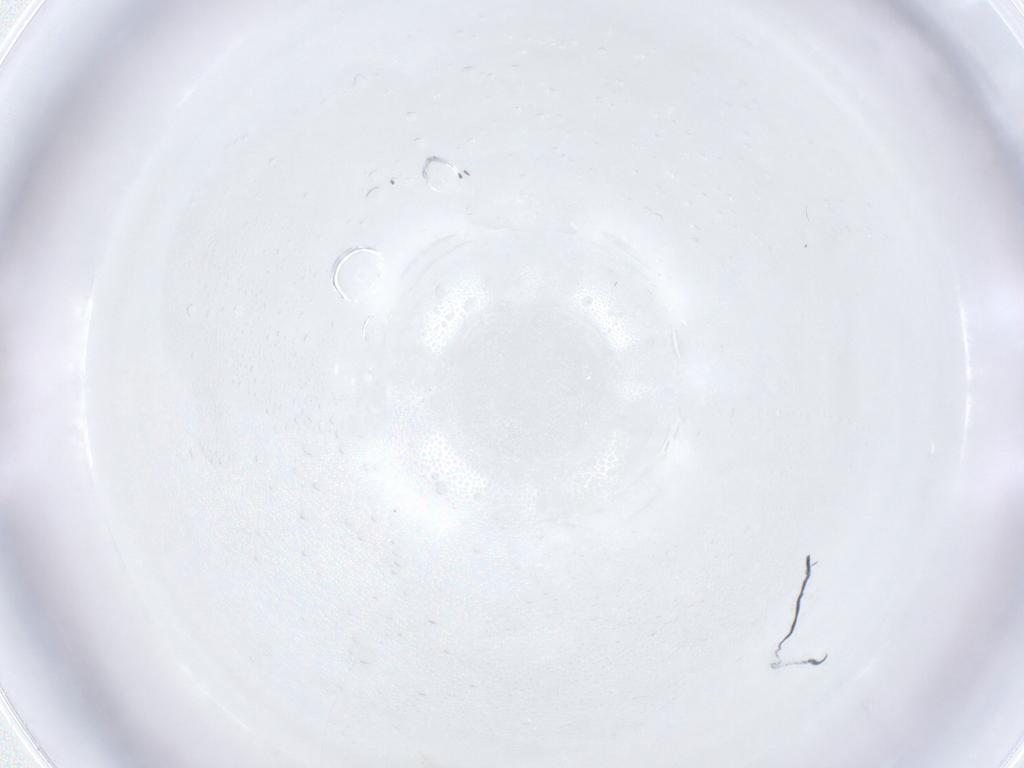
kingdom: Animalia
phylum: Arthropoda
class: Insecta
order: Hemiptera
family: Aleyrodidae
